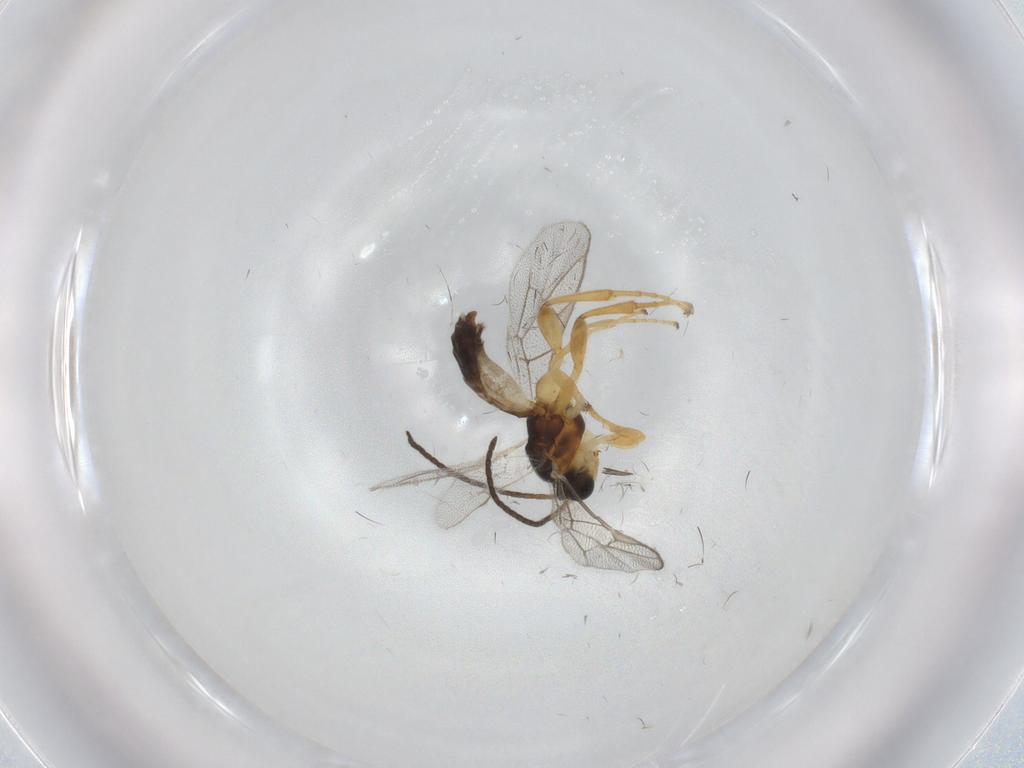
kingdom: Animalia
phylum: Arthropoda
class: Insecta
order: Hymenoptera
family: Ichneumonidae
